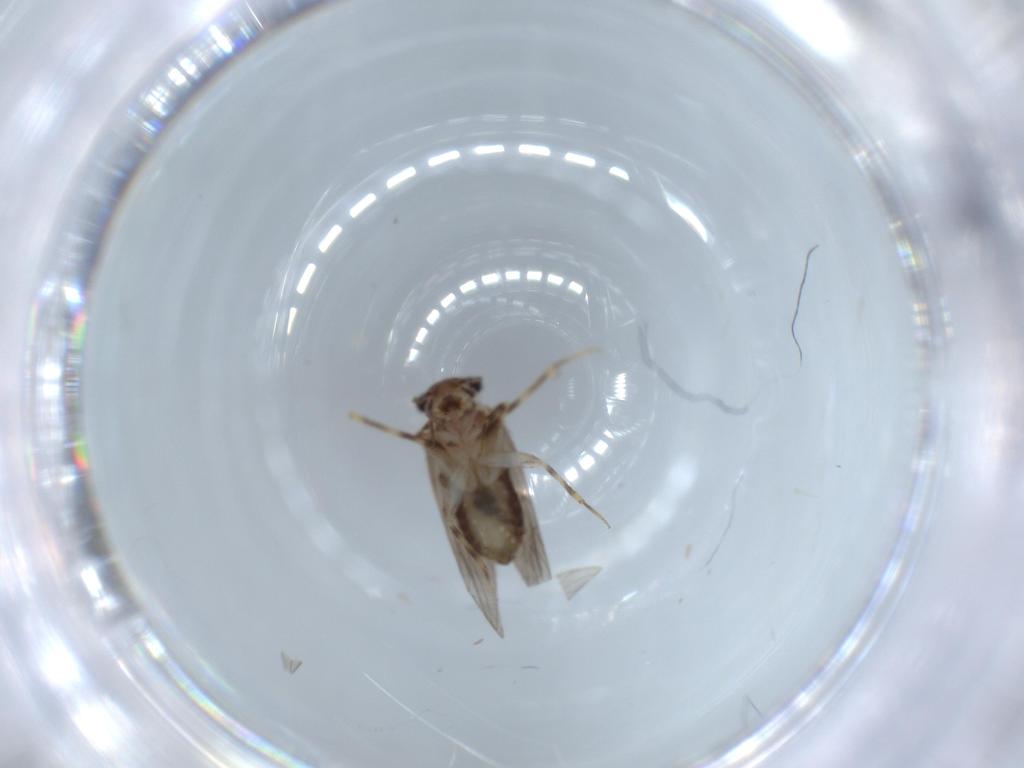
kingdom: Animalia
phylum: Arthropoda
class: Insecta
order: Psocodea
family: Lepidopsocidae
